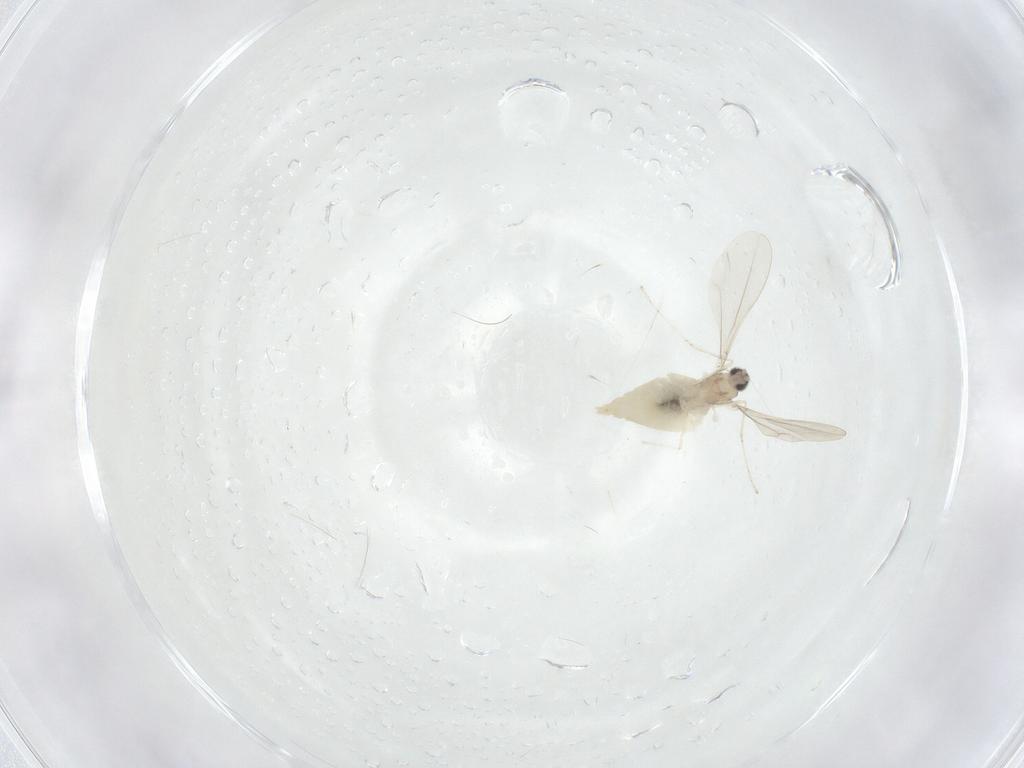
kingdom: Animalia
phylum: Arthropoda
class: Insecta
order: Diptera
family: Cecidomyiidae
